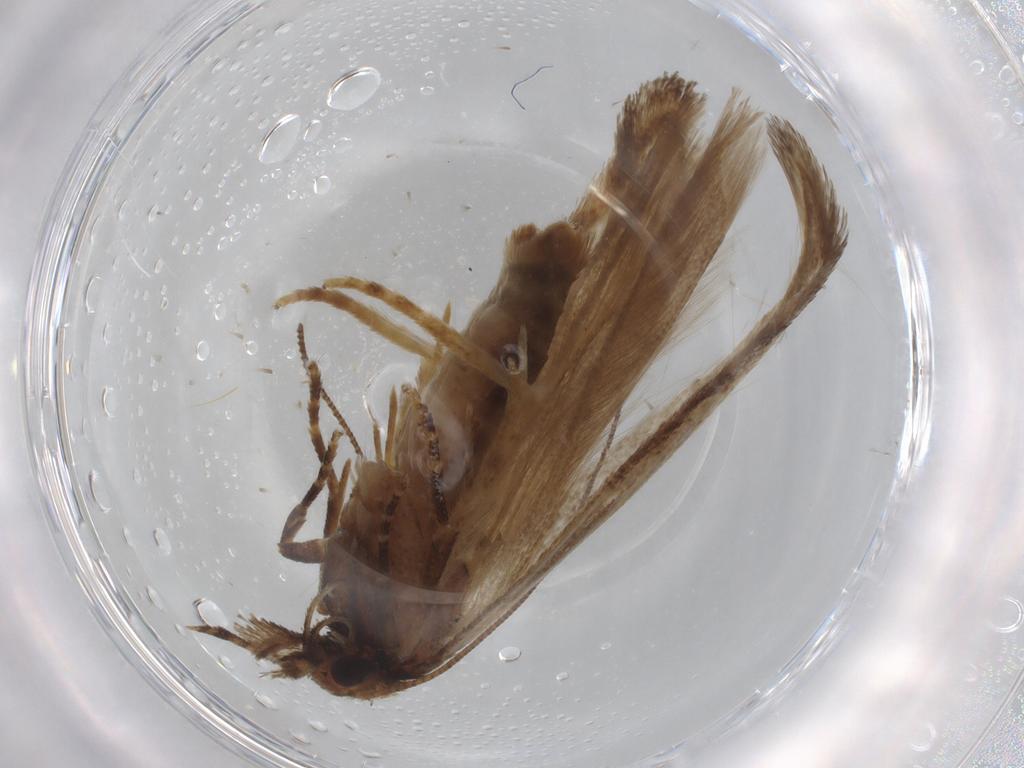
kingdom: Animalia
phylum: Arthropoda
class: Insecta
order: Lepidoptera
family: Gelechiidae
